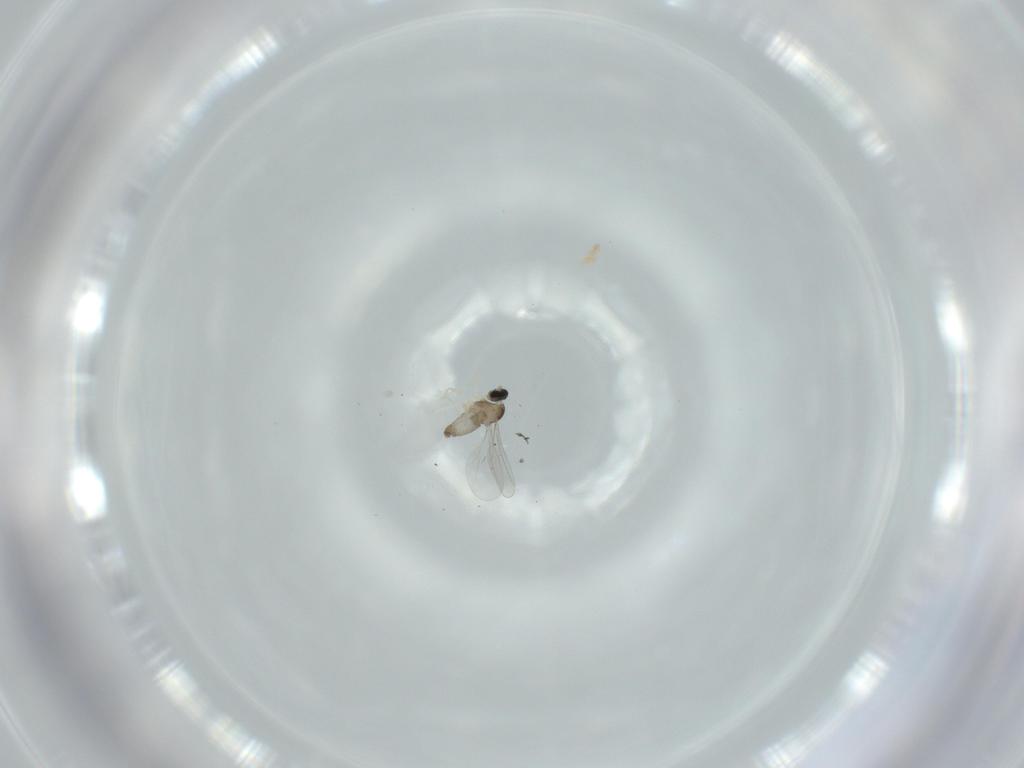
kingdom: Animalia
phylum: Arthropoda
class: Insecta
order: Diptera
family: Cecidomyiidae
